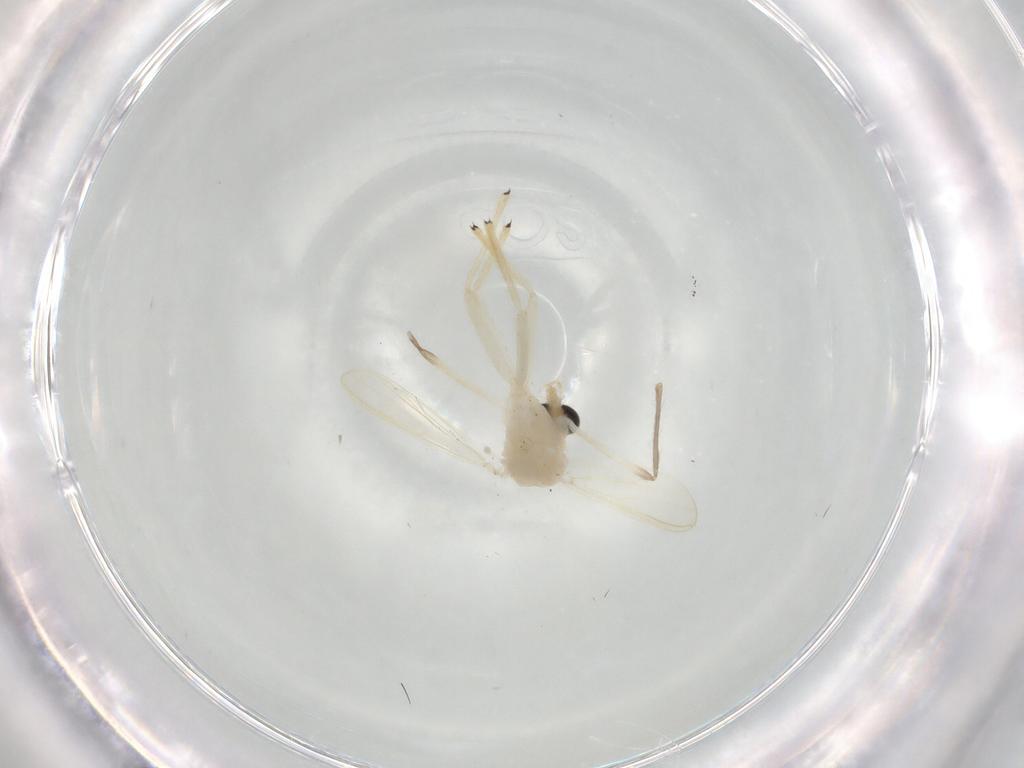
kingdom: Animalia
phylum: Arthropoda
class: Insecta
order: Diptera
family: Chironomidae
